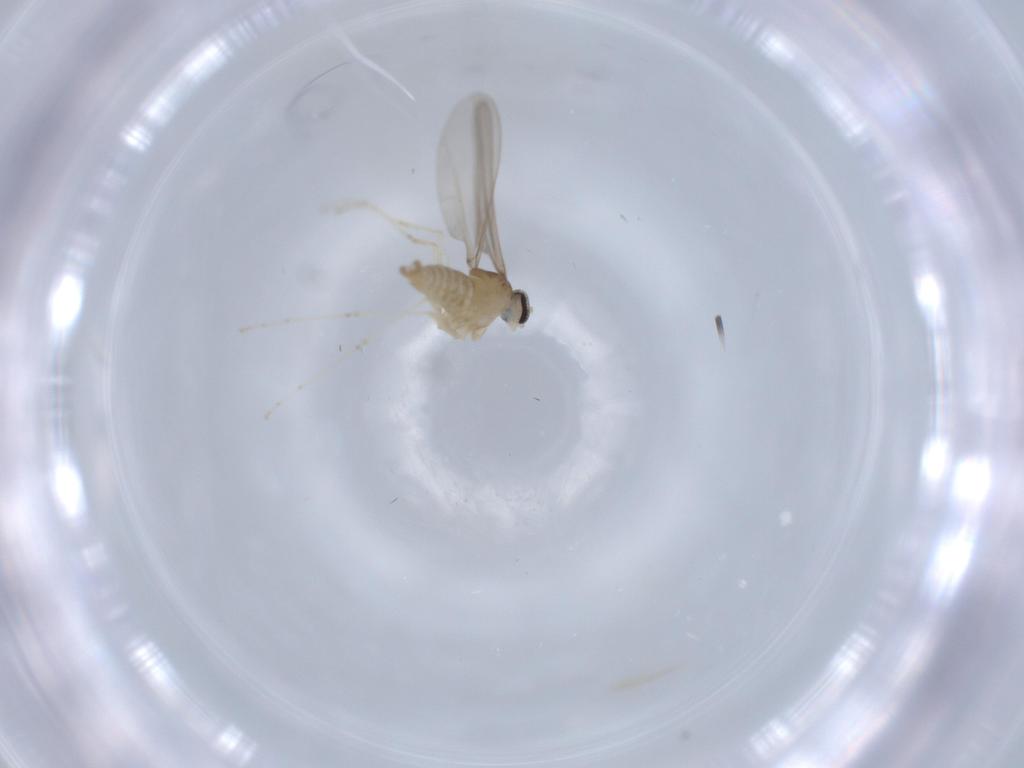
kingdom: Animalia
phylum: Arthropoda
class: Insecta
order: Diptera
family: Cecidomyiidae
